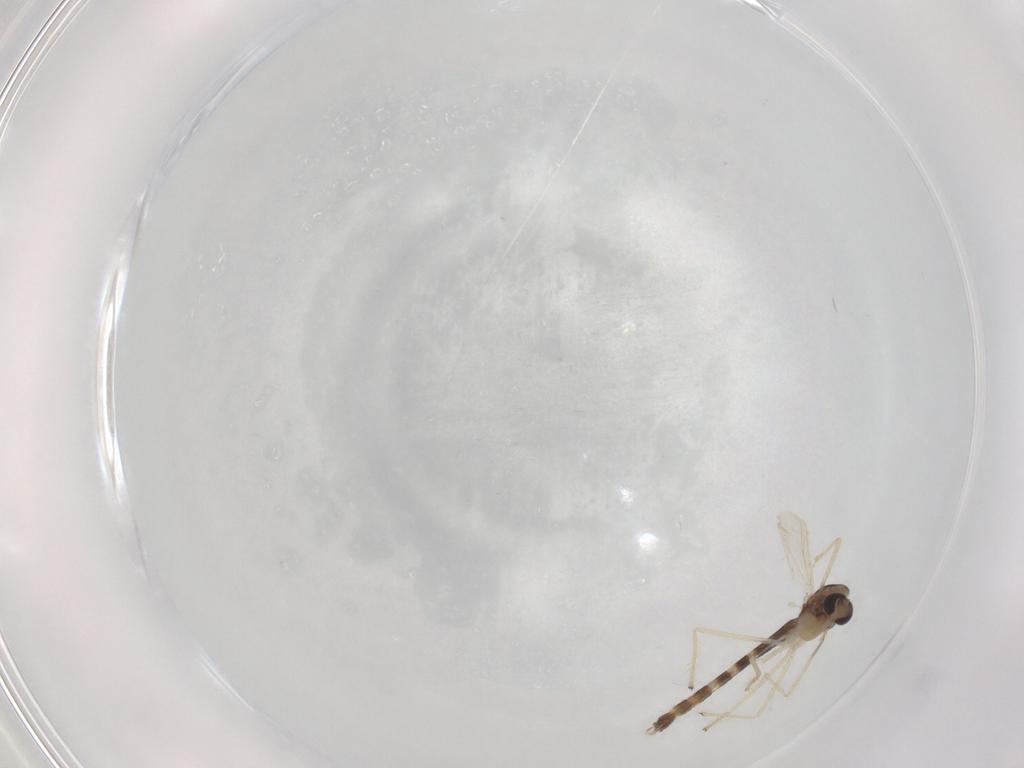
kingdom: Animalia
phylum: Arthropoda
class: Insecta
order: Diptera
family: Chironomidae
